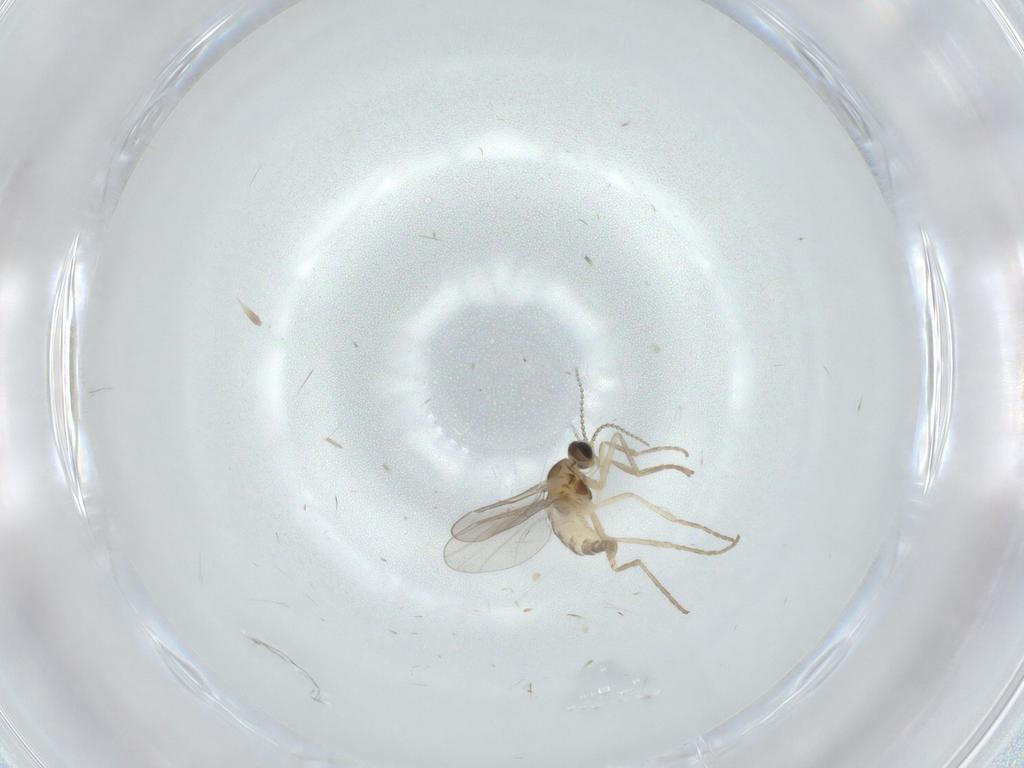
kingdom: Animalia
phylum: Arthropoda
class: Insecta
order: Diptera
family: Cecidomyiidae
